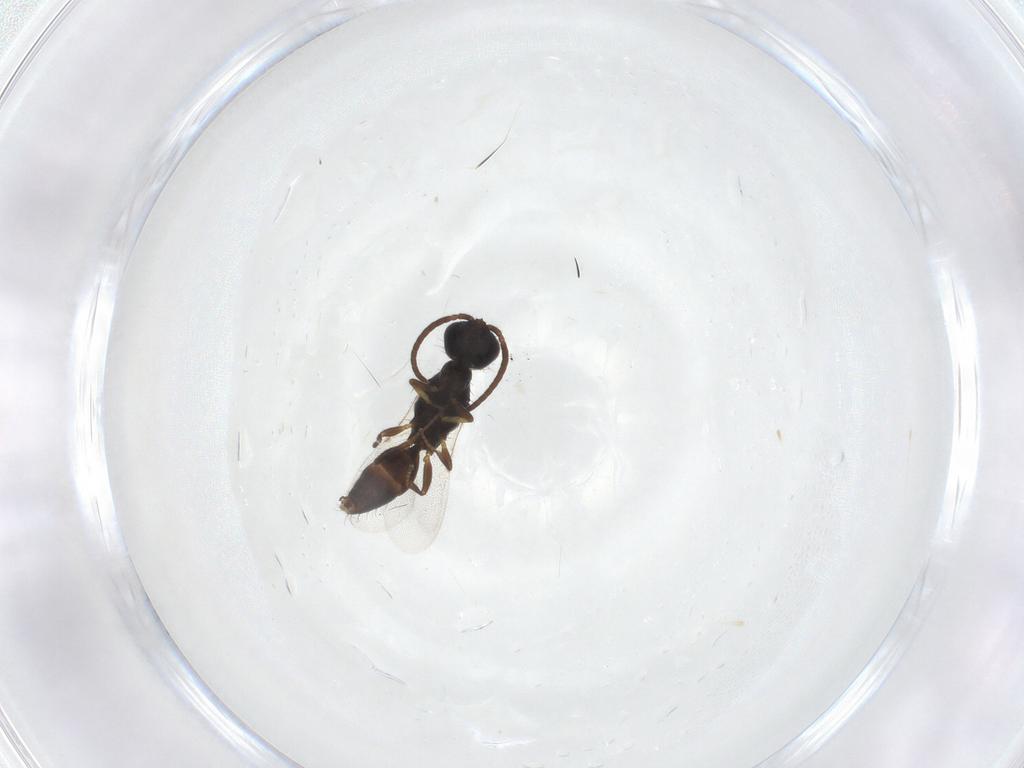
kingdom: Animalia
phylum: Arthropoda
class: Insecta
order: Hymenoptera
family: Bethylidae
